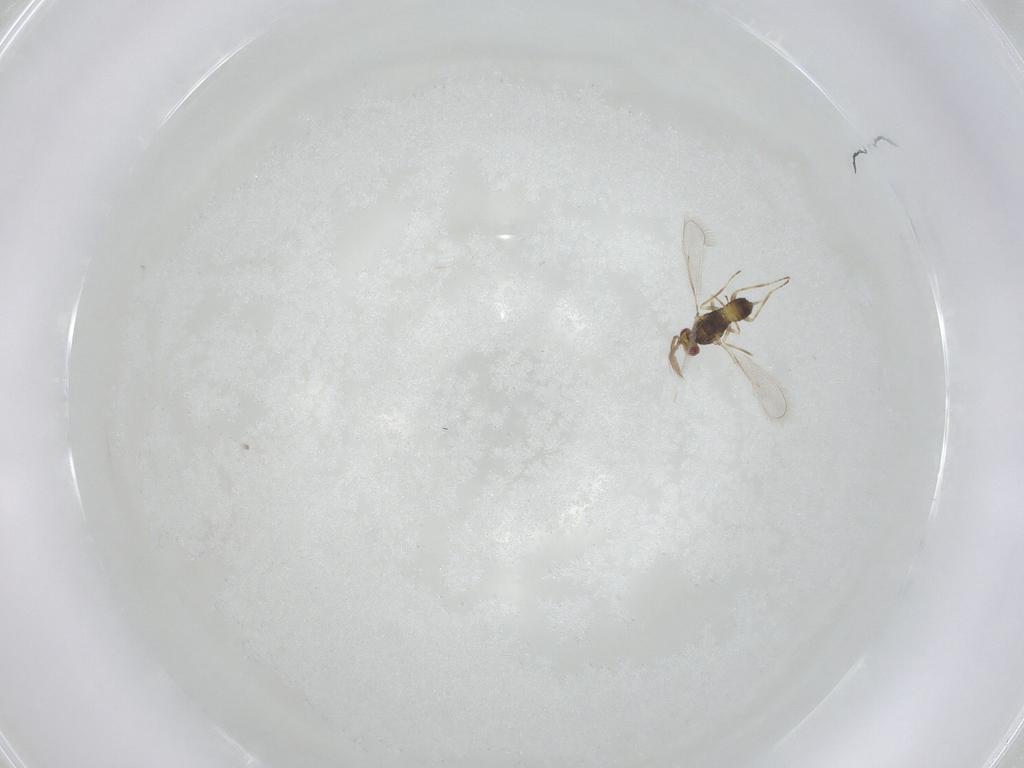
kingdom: Animalia
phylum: Arthropoda
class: Insecta
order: Hymenoptera
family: Eulophidae
